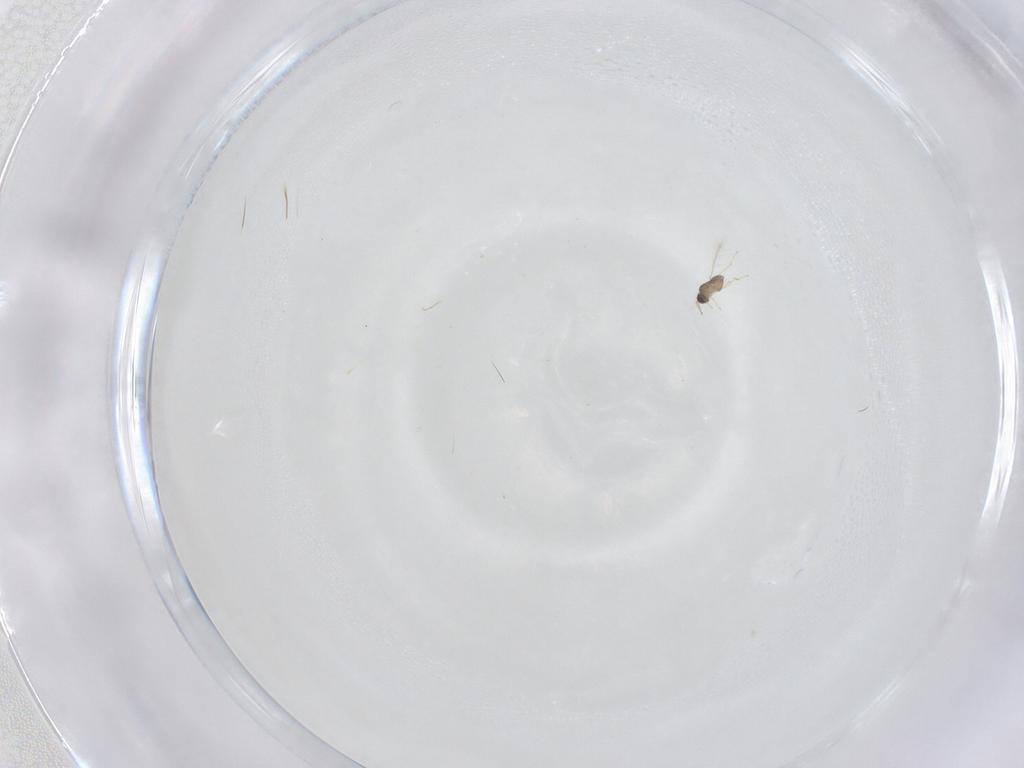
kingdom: Animalia
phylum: Arthropoda
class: Insecta
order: Hymenoptera
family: Mymaridae
